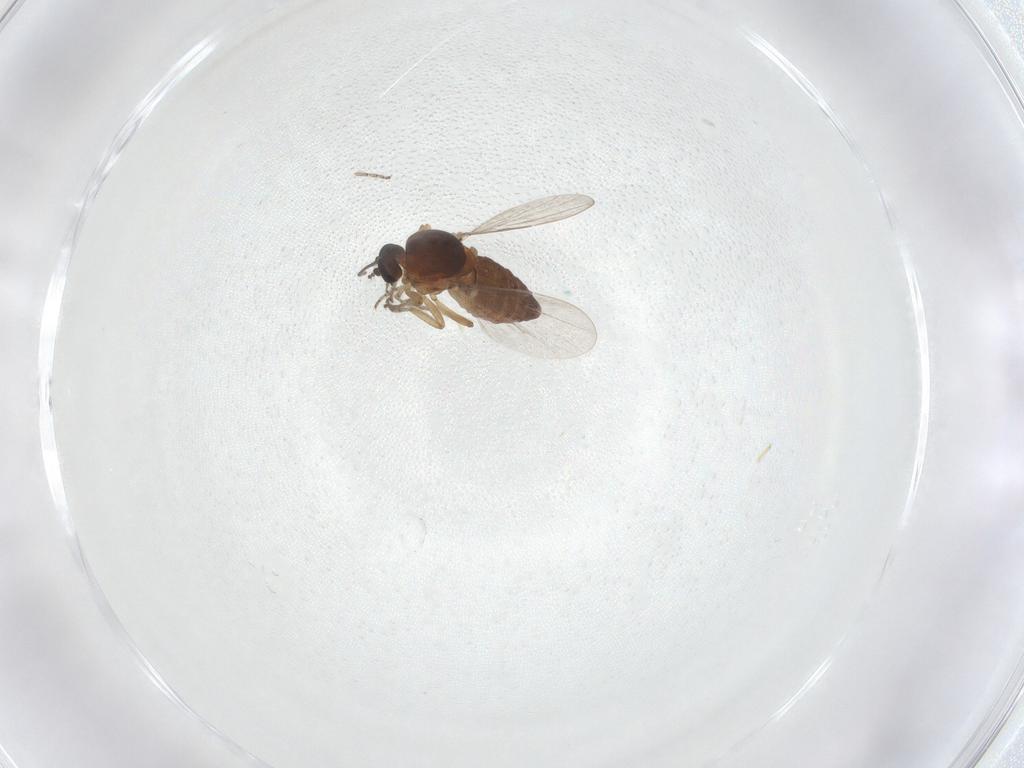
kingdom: Animalia
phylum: Arthropoda
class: Insecta
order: Diptera
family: Ceratopogonidae
